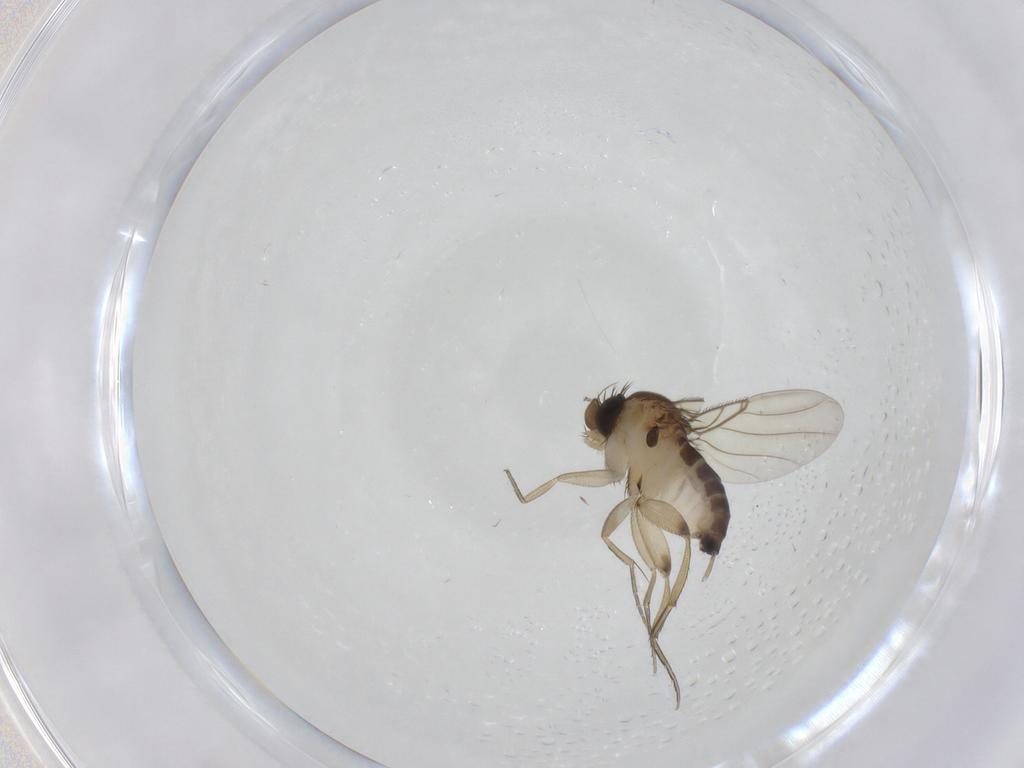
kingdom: Animalia
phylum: Arthropoda
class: Insecta
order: Diptera
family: Phoridae
